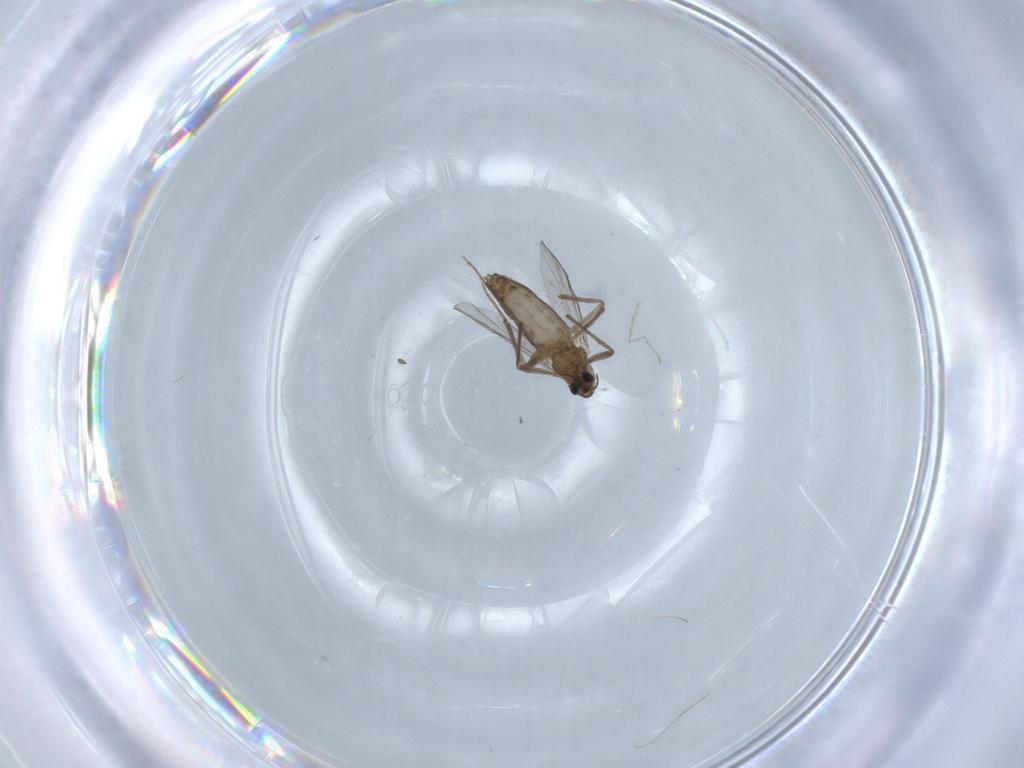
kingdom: Animalia
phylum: Arthropoda
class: Insecta
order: Diptera
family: Chironomidae
